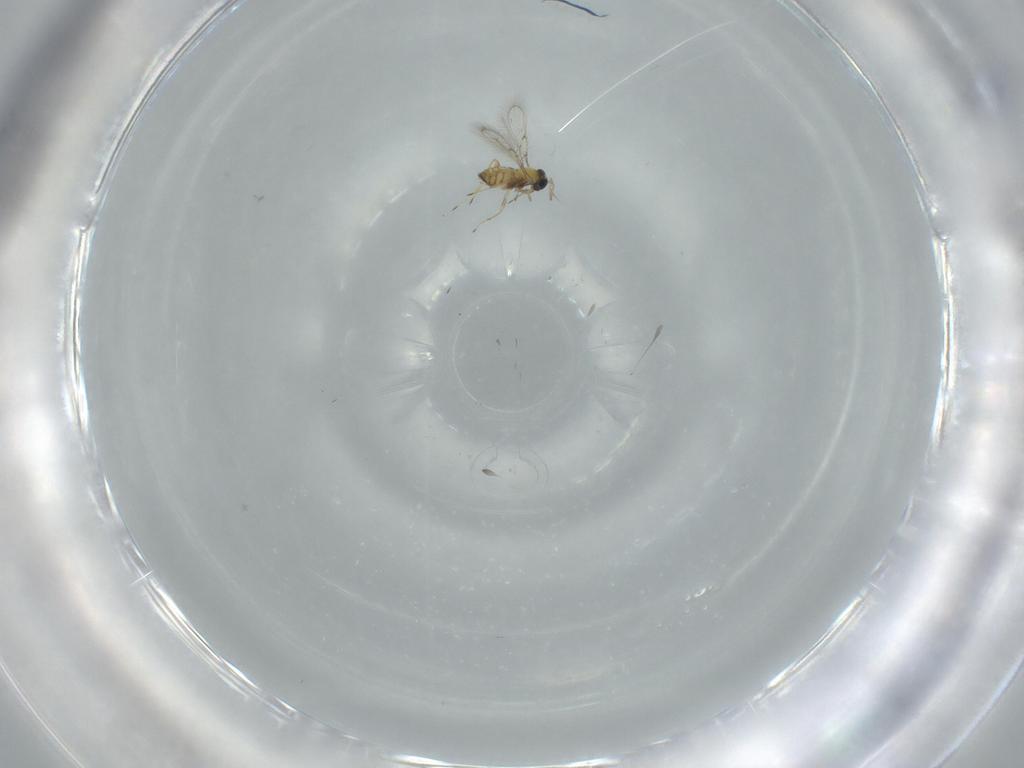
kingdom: Animalia
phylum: Arthropoda
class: Insecta
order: Hymenoptera
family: Trichogrammatidae
